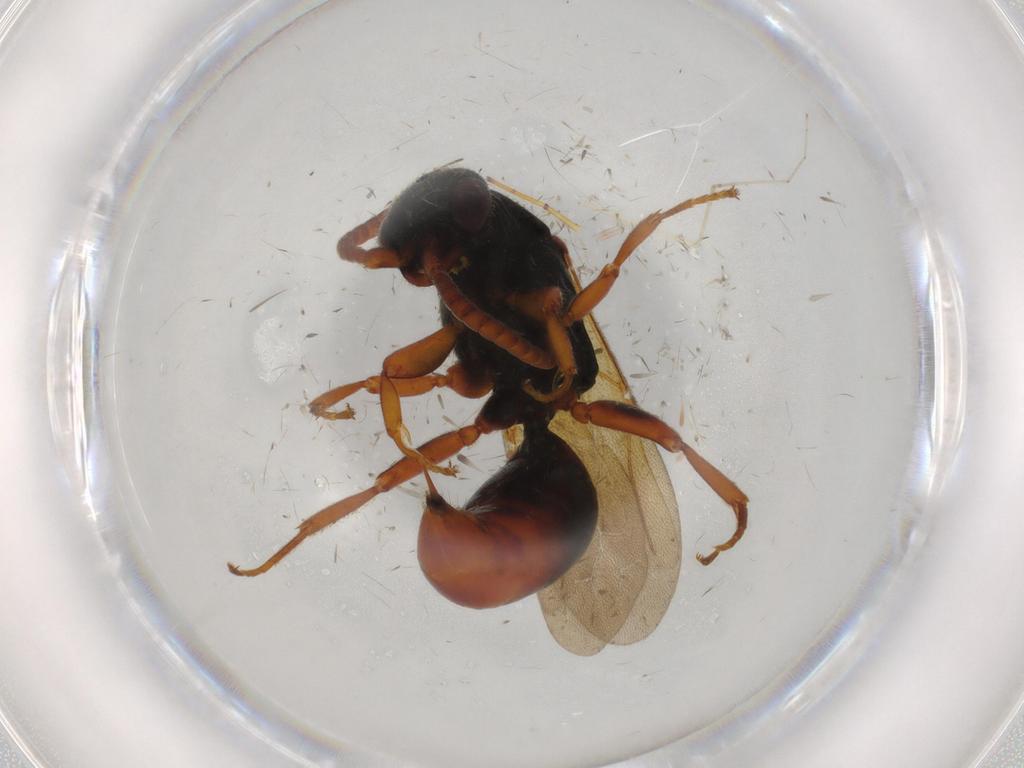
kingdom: Animalia
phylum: Arthropoda
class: Insecta
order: Hymenoptera
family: Bethylidae
